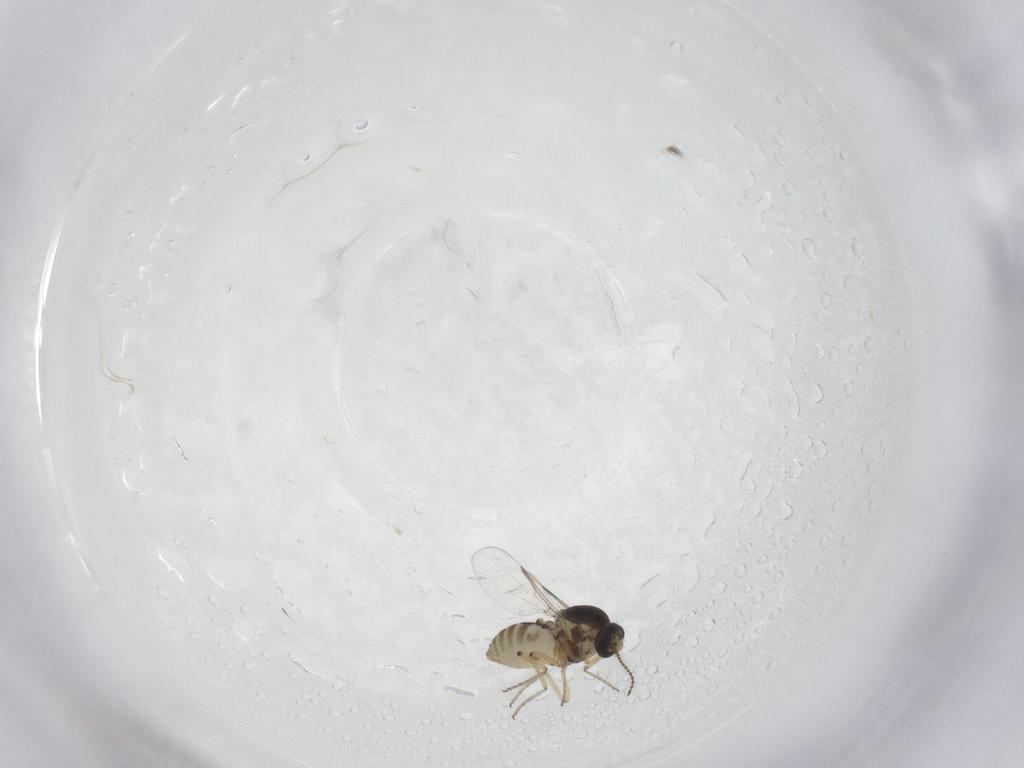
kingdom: Animalia
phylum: Arthropoda
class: Insecta
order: Diptera
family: Ceratopogonidae
